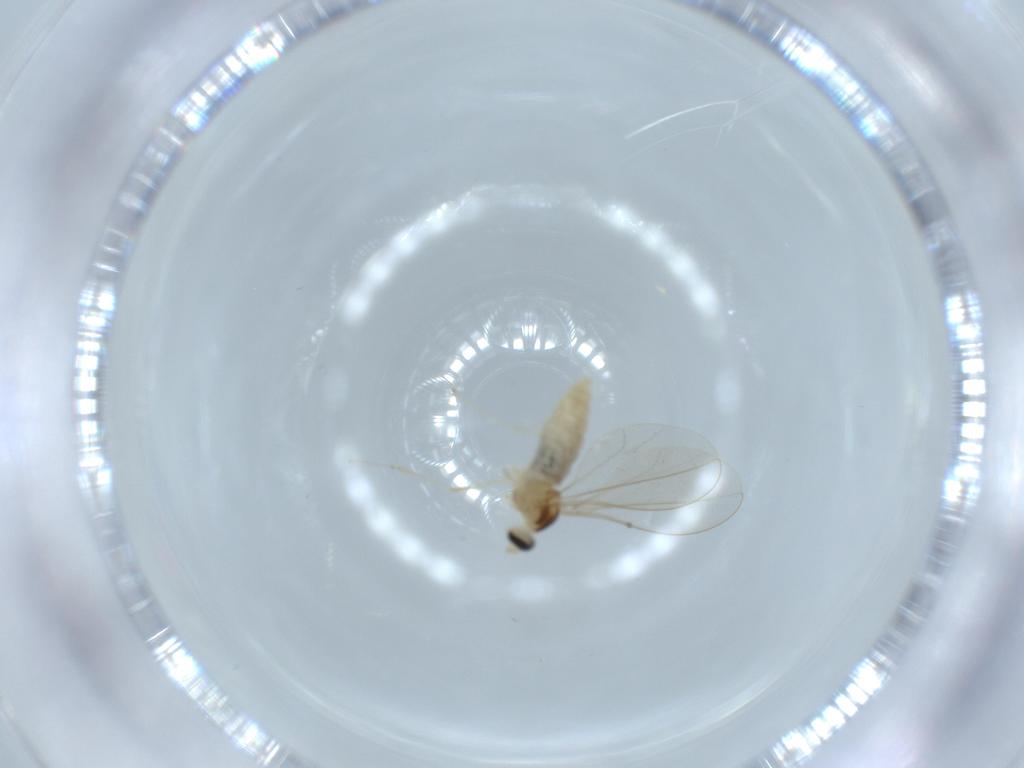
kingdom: Animalia
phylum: Arthropoda
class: Insecta
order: Diptera
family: Cecidomyiidae
